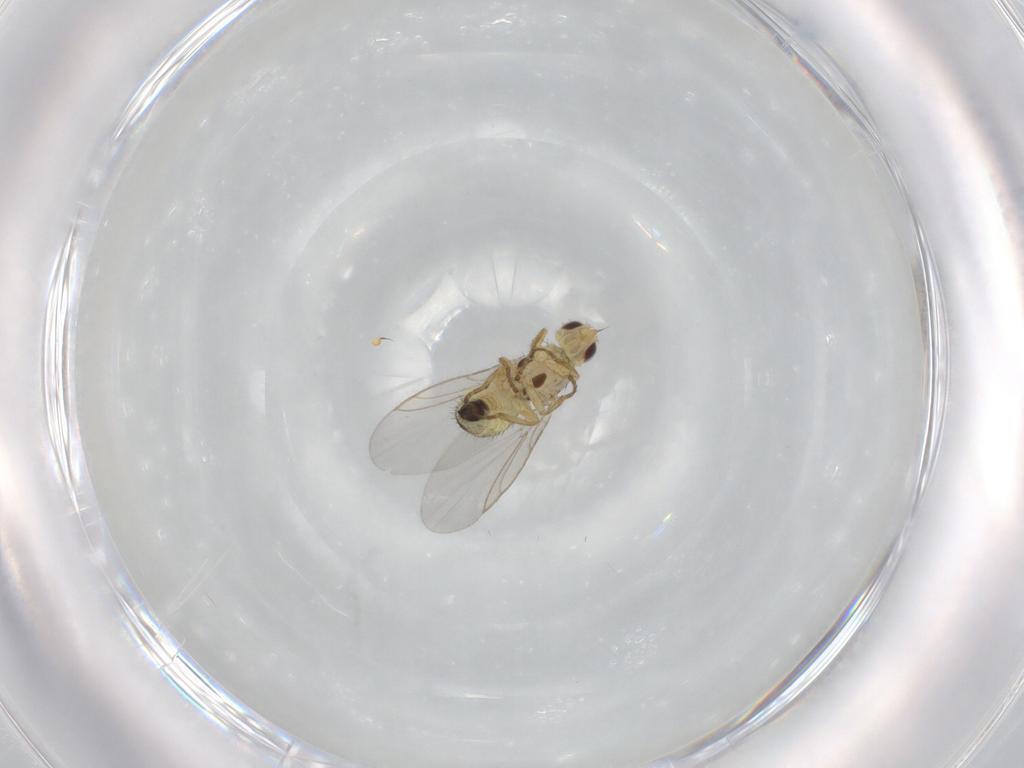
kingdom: Animalia
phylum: Arthropoda
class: Insecta
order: Diptera
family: Agromyzidae
